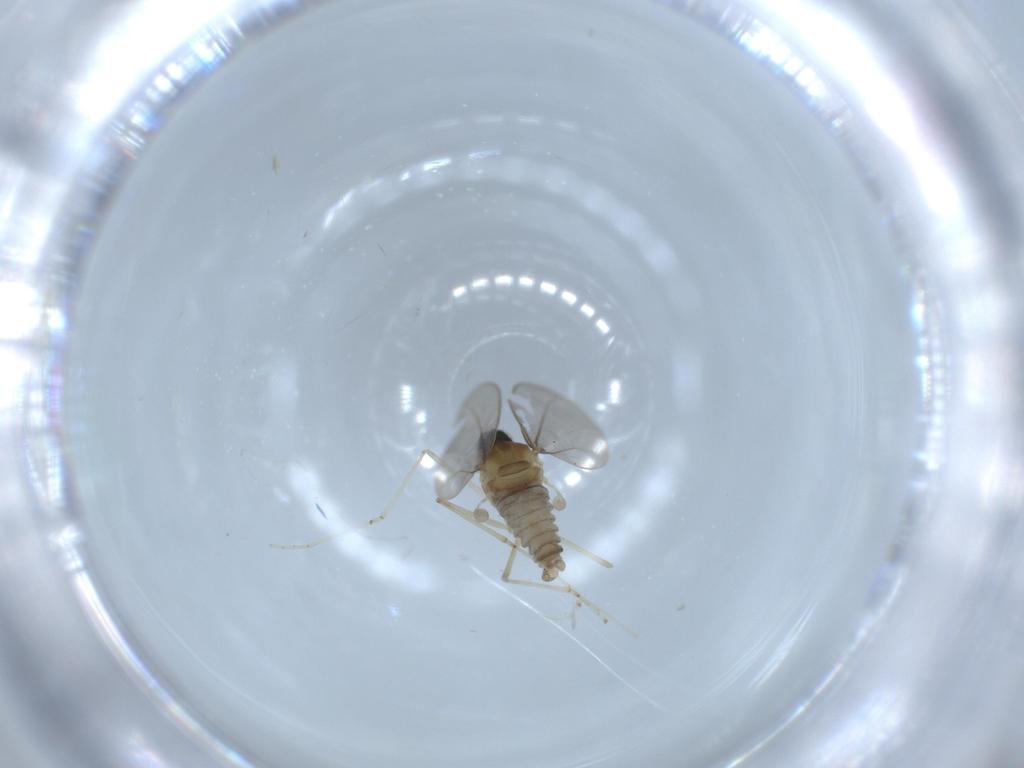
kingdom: Animalia
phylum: Arthropoda
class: Insecta
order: Diptera
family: Cecidomyiidae
